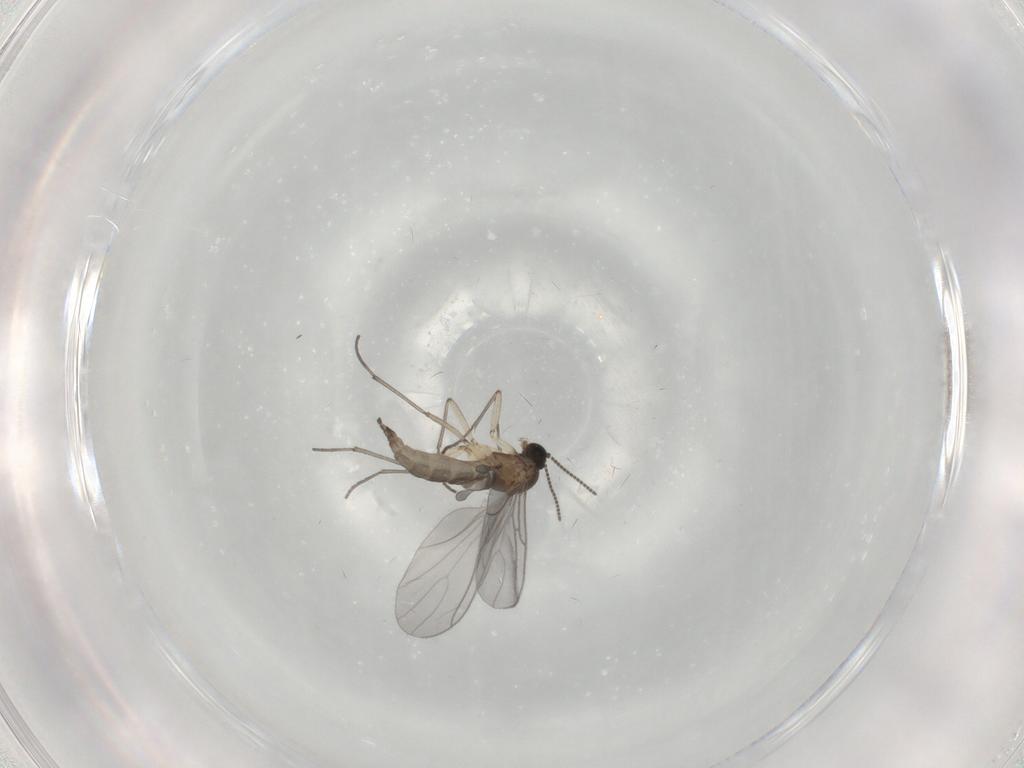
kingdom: Animalia
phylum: Arthropoda
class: Insecta
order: Diptera
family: Sciaridae
